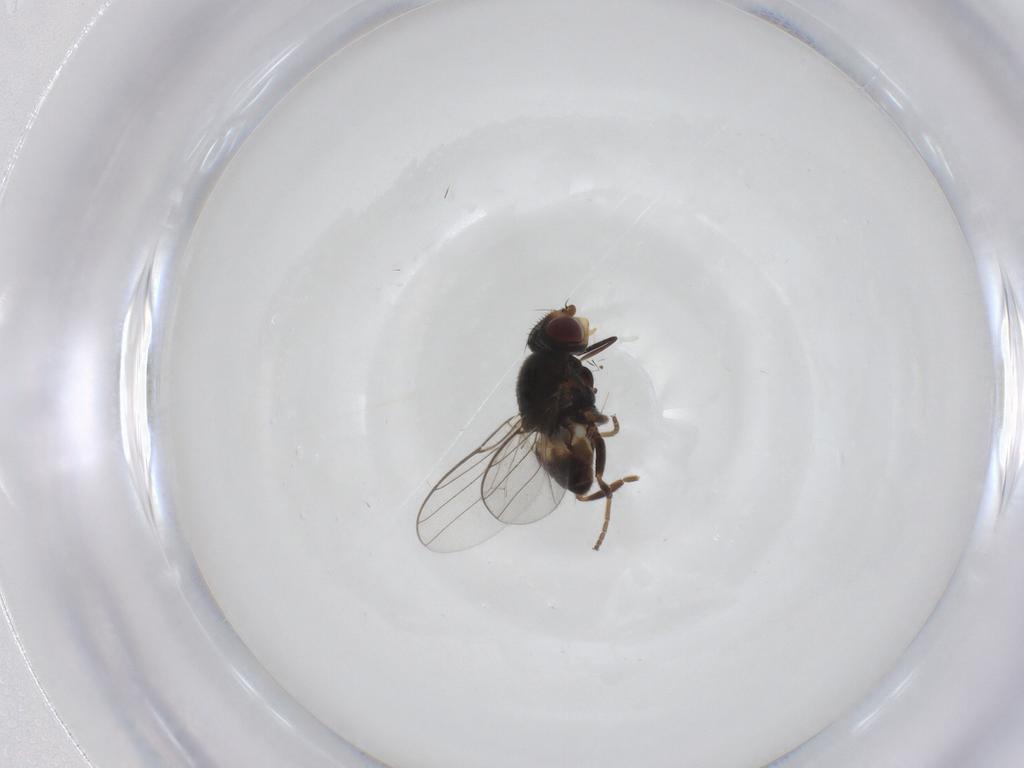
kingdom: Animalia
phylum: Arthropoda
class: Insecta
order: Diptera
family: Chloropidae
